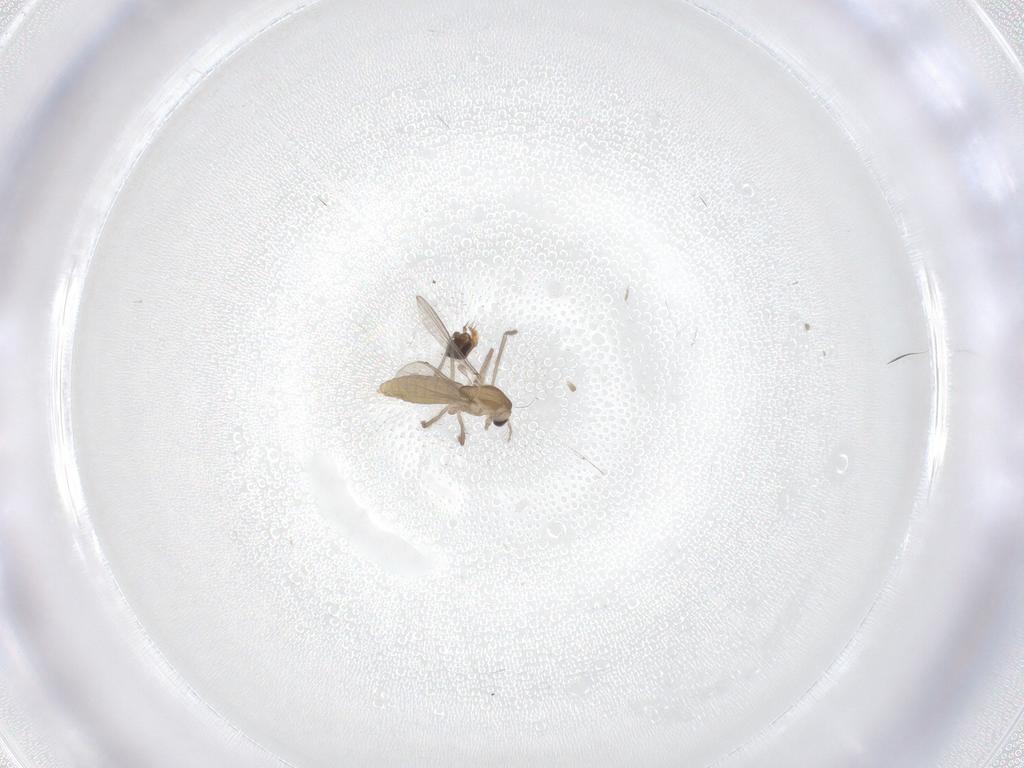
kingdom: Animalia
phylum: Arthropoda
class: Insecta
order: Diptera
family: Chironomidae
